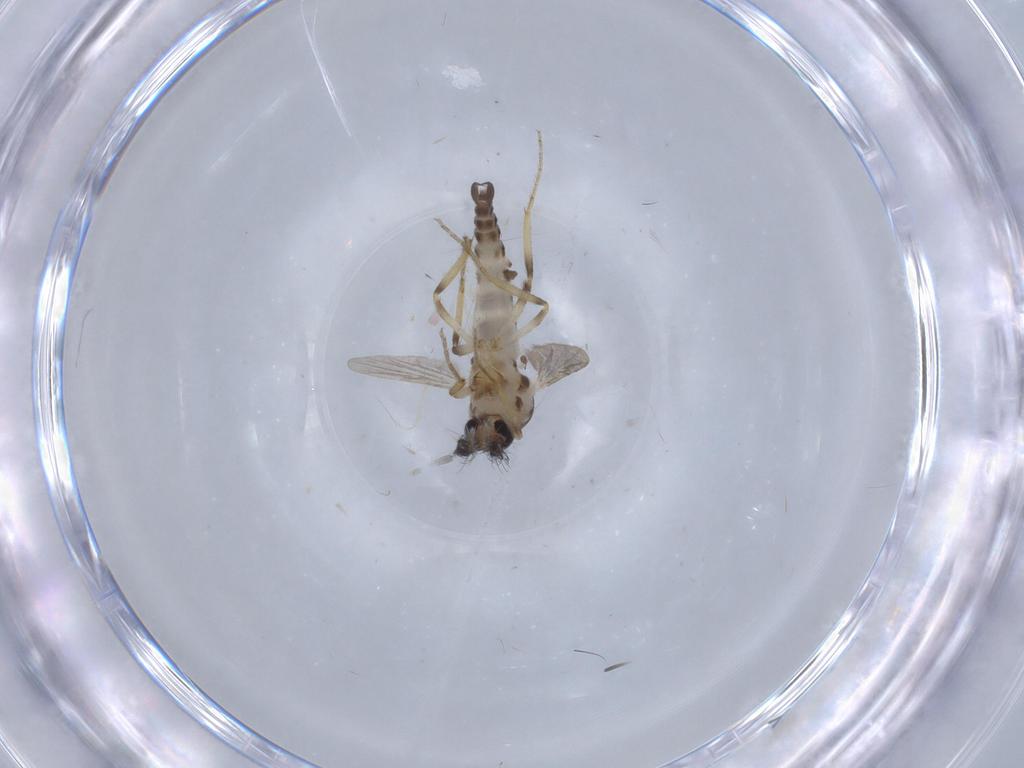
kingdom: Animalia
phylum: Arthropoda
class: Insecta
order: Diptera
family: Ceratopogonidae
